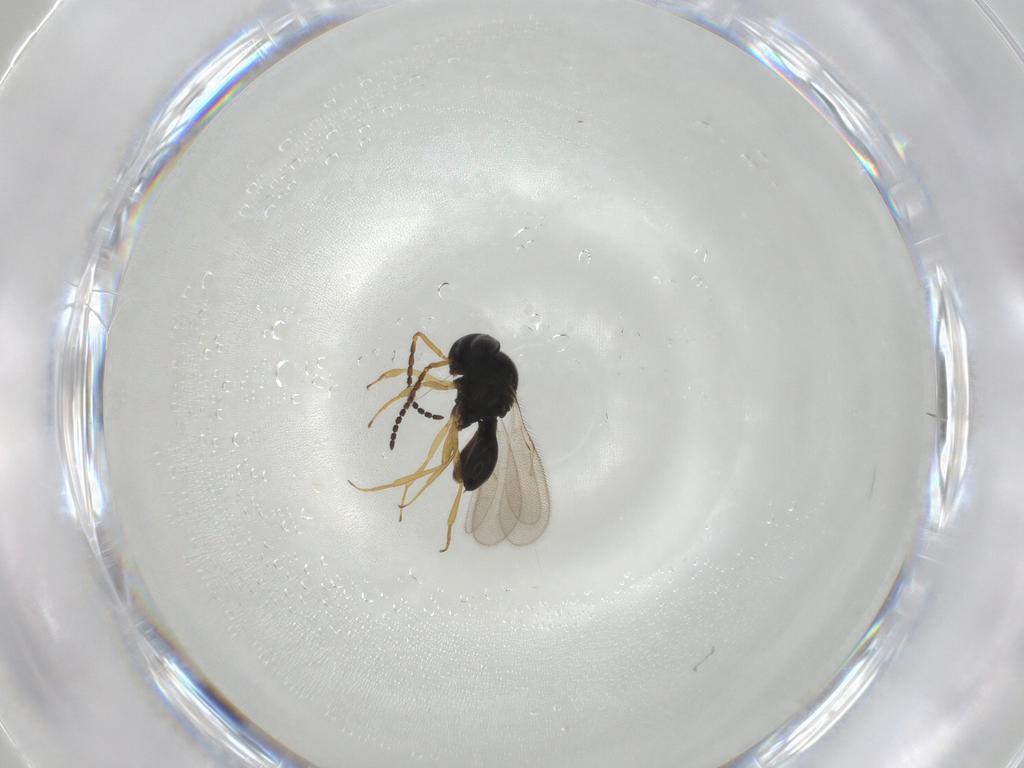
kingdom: Animalia
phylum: Arthropoda
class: Insecta
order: Hymenoptera
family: Scelionidae
